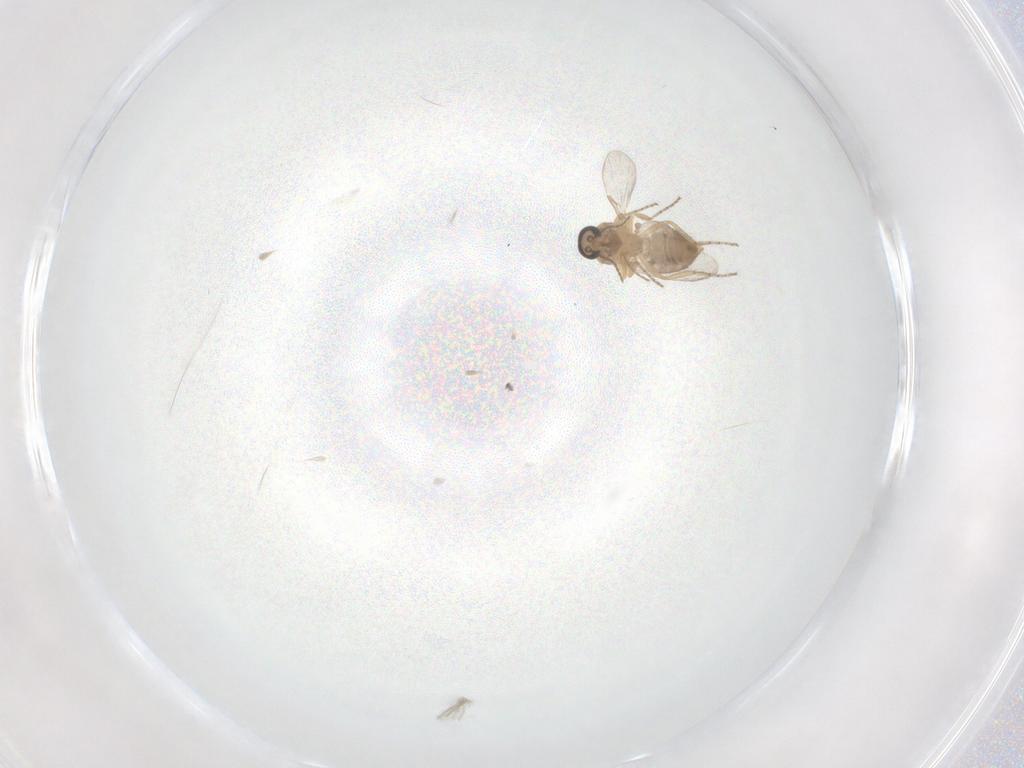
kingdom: Animalia
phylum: Arthropoda
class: Insecta
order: Diptera
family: Ceratopogonidae
